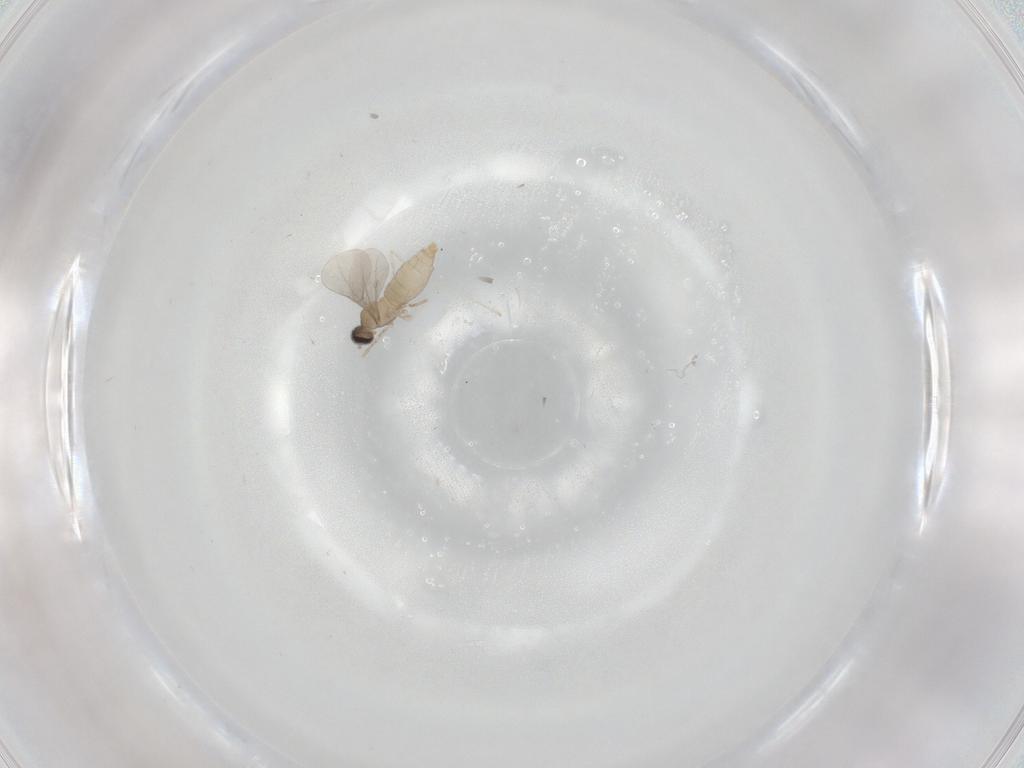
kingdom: Animalia
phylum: Arthropoda
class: Insecta
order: Diptera
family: Cecidomyiidae
